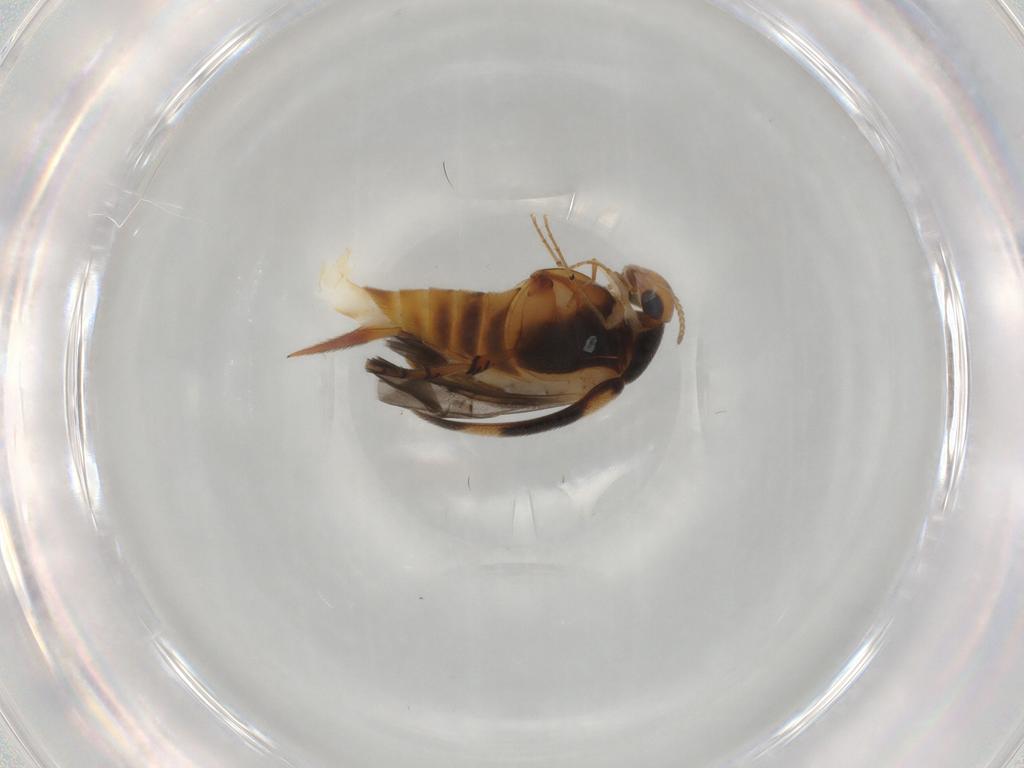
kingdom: Animalia
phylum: Arthropoda
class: Insecta
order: Coleoptera
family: Mordellidae
